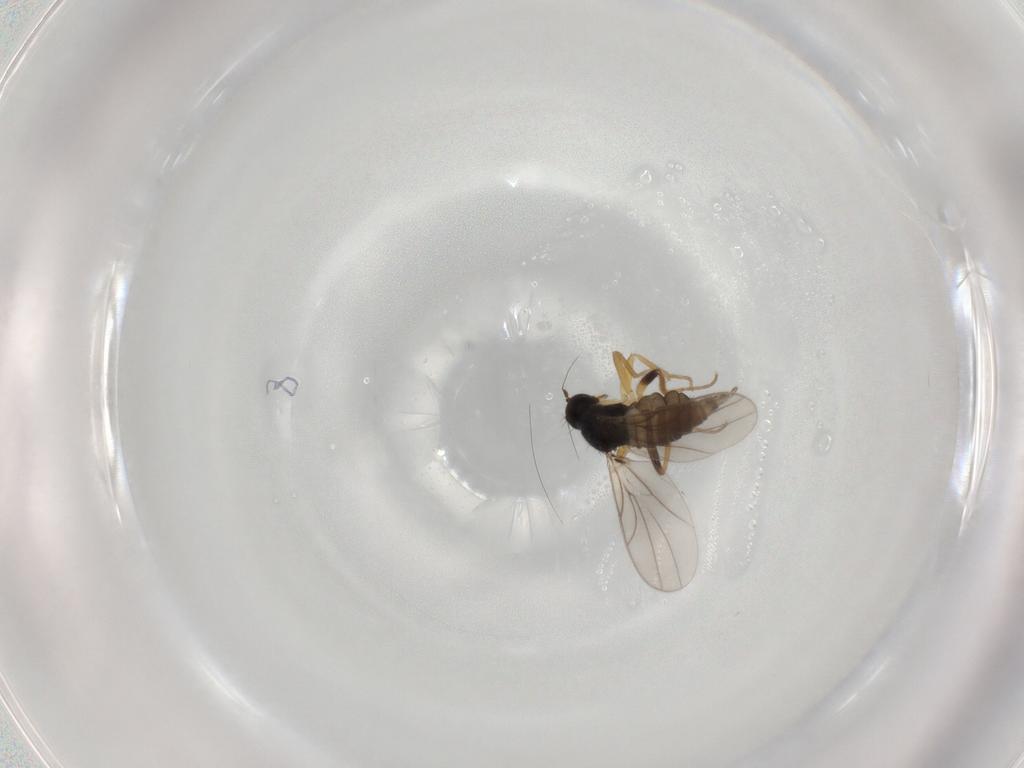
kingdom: Animalia
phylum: Arthropoda
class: Insecta
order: Diptera
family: Hybotidae
